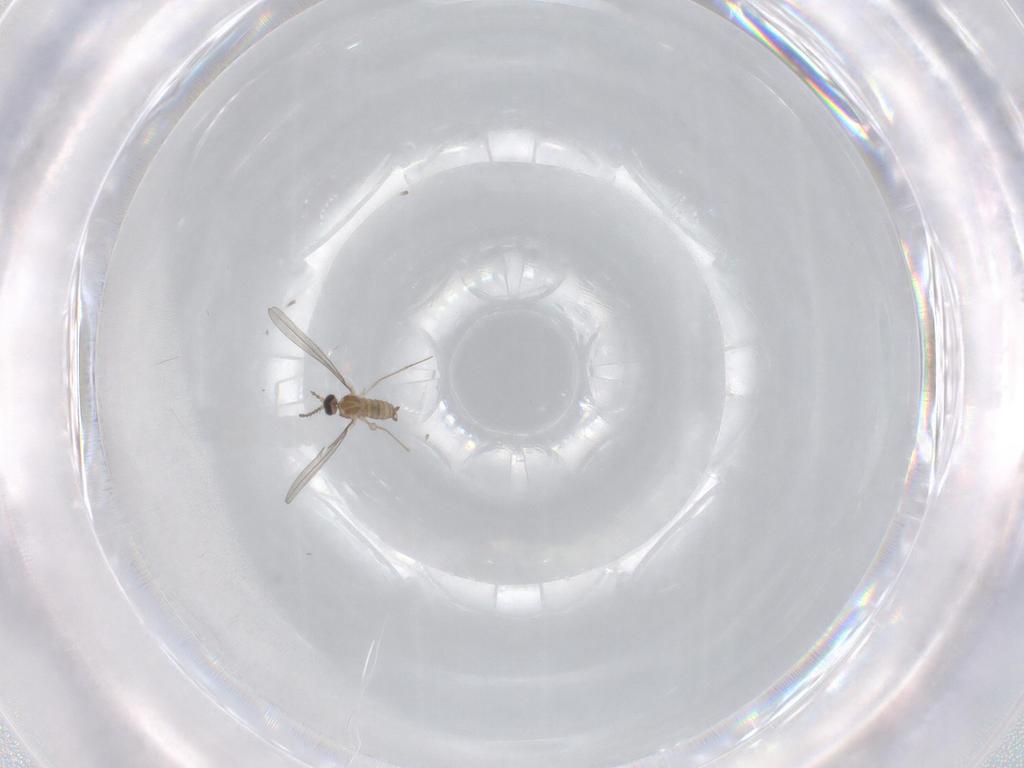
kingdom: Animalia
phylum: Arthropoda
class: Insecta
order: Diptera
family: Cecidomyiidae
